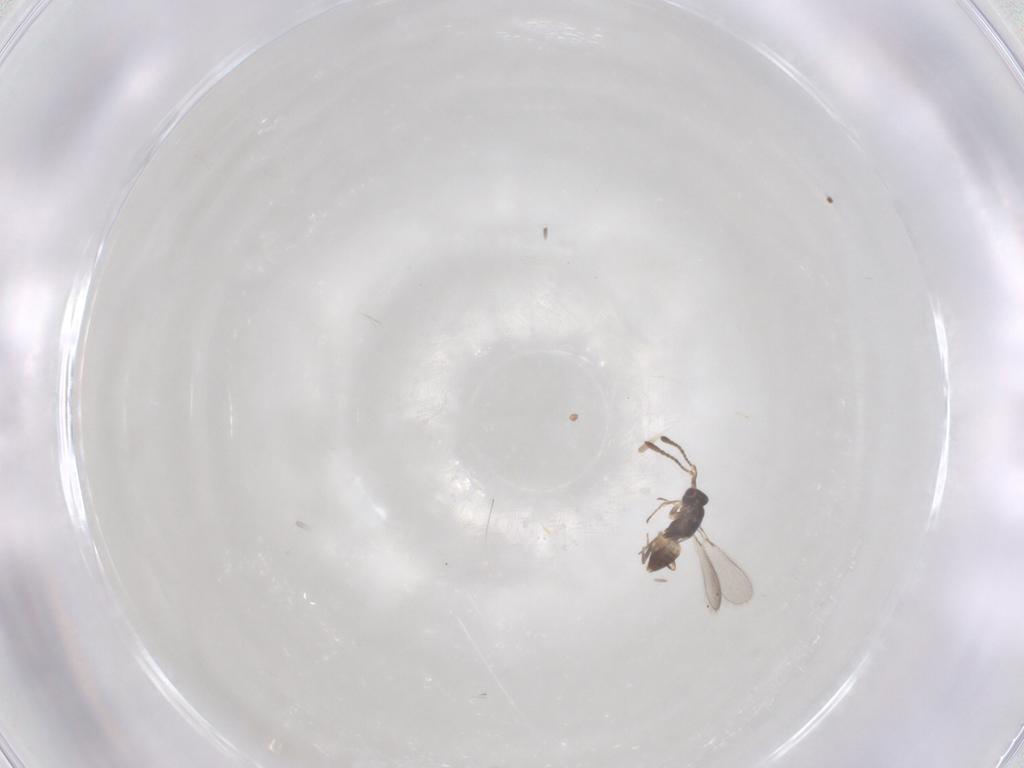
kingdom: Animalia
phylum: Arthropoda
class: Insecta
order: Hymenoptera
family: Mymaridae
